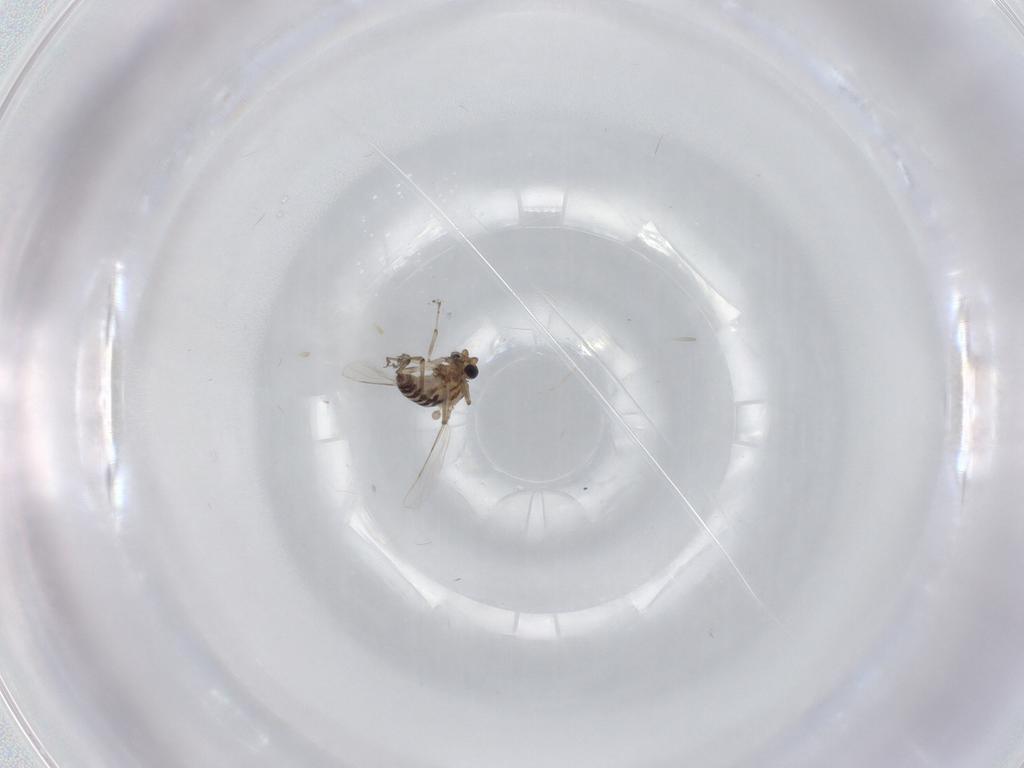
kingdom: Animalia
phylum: Arthropoda
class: Insecta
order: Diptera
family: Ceratopogonidae
